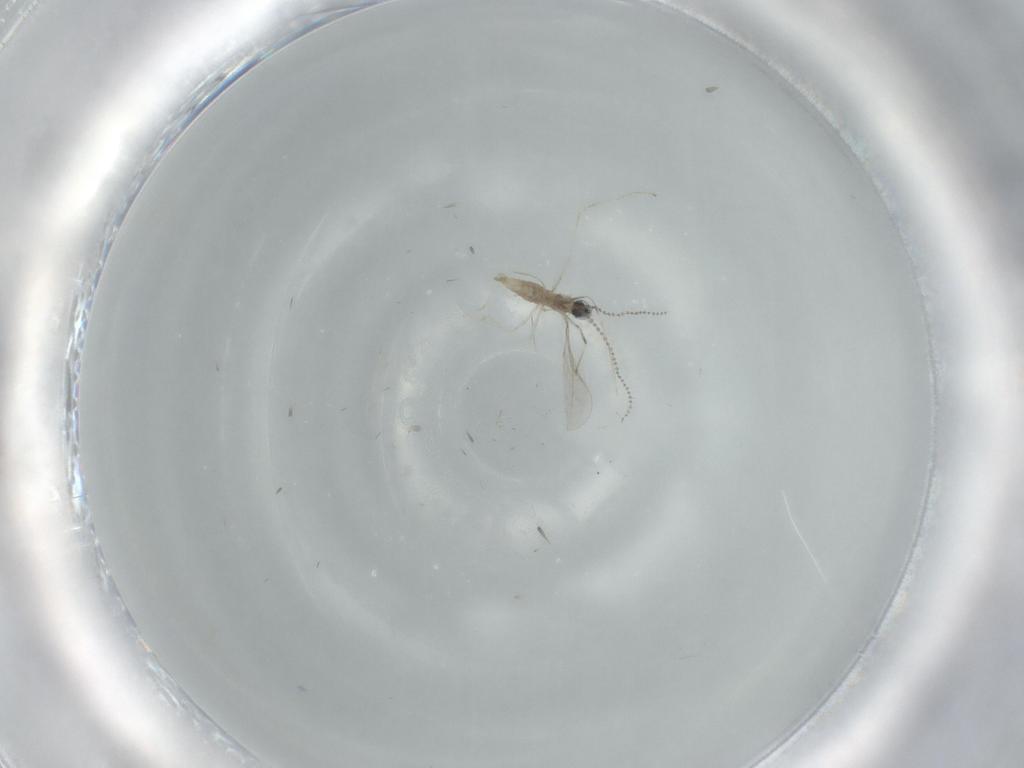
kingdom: Animalia
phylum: Arthropoda
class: Insecta
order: Diptera
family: Cecidomyiidae
